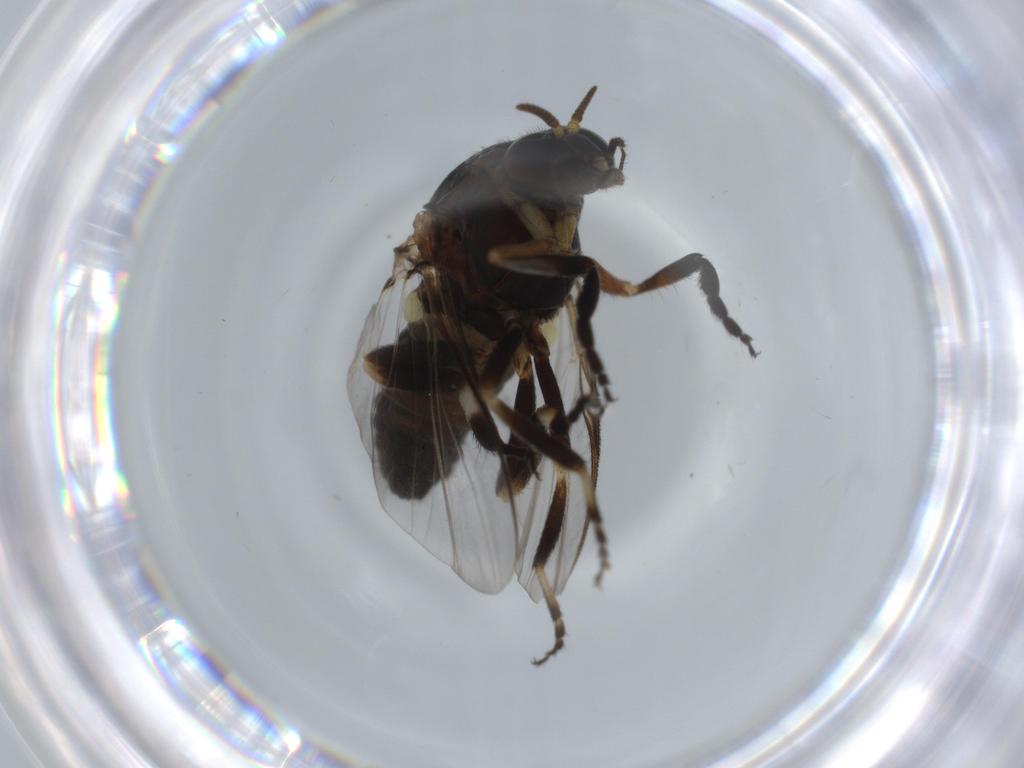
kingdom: Animalia
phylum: Arthropoda
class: Insecta
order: Diptera
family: Cecidomyiidae
